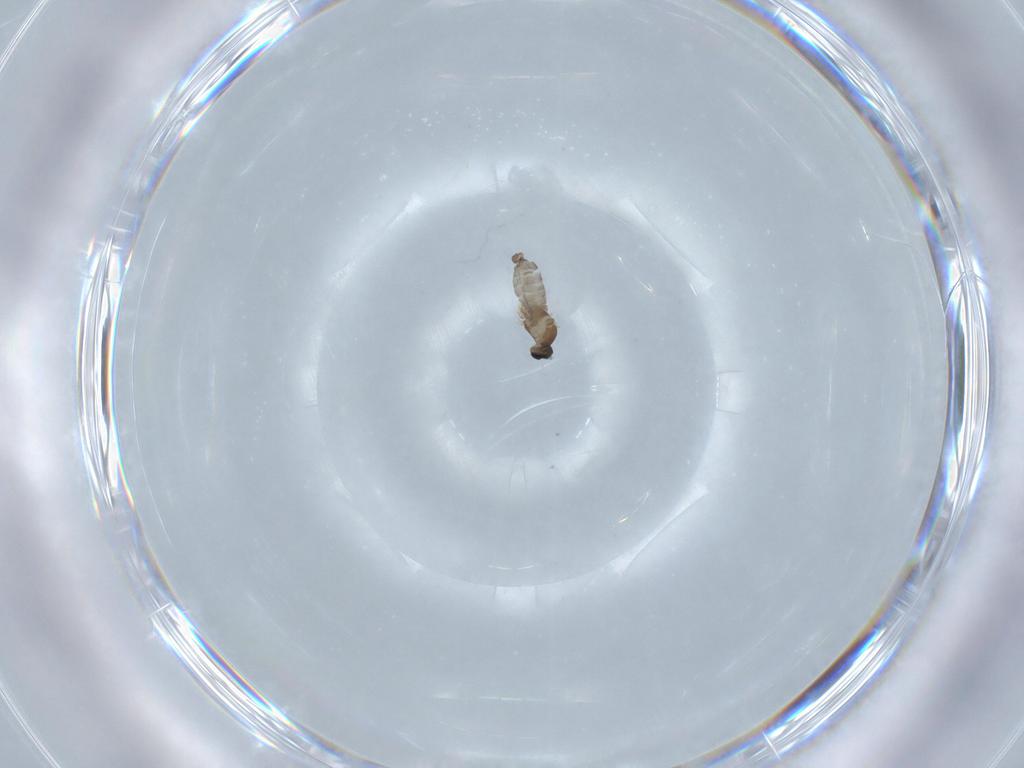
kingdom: Animalia
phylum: Arthropoda
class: Insecta
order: Diptera
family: Cecidomyiidae
